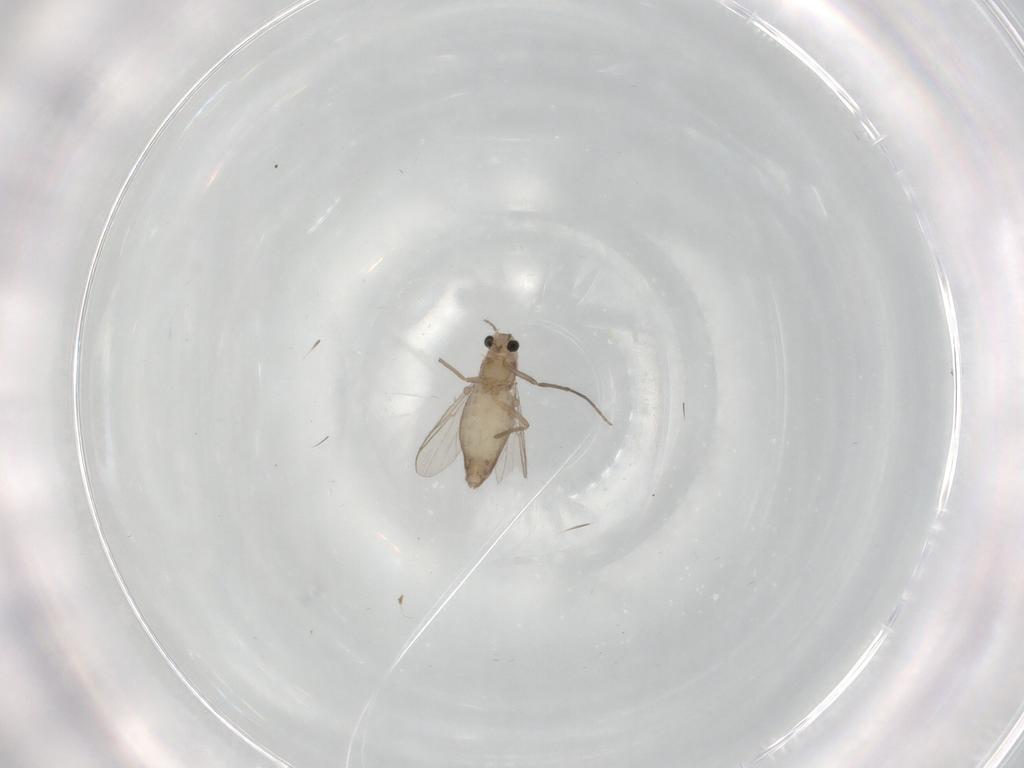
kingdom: Animalia
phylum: Arthropoda
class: Insecta
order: Diptera
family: Chironomidae
